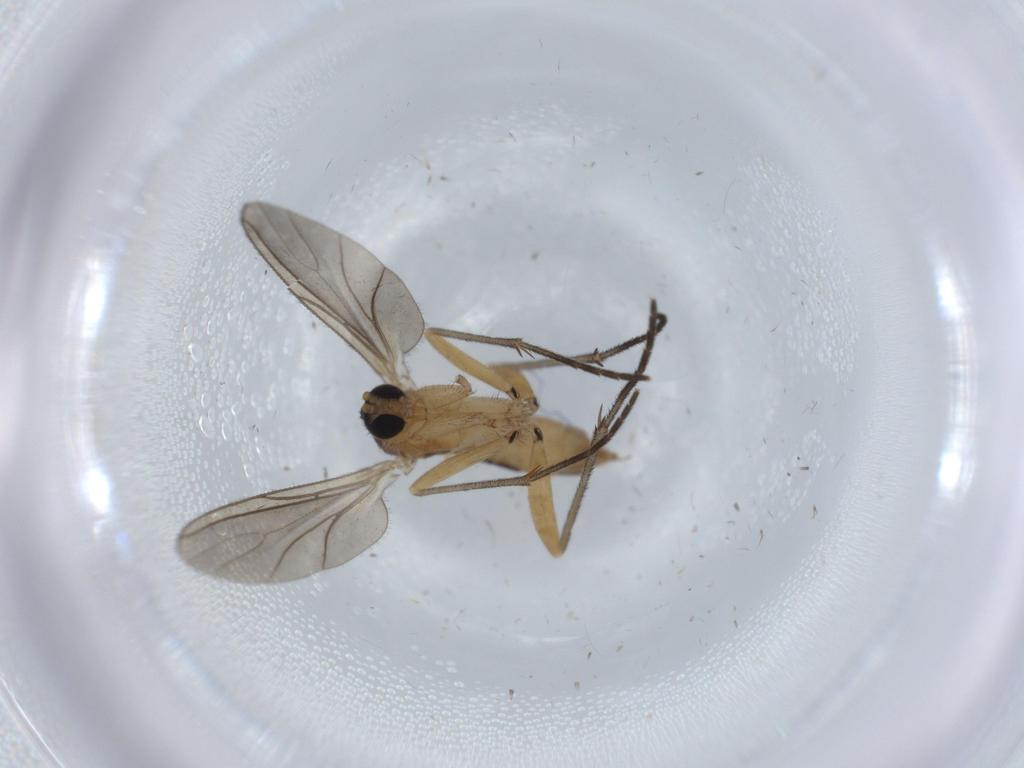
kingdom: Animalia
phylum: Arthropoda
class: Insecta
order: Diptera
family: Sciaridae
